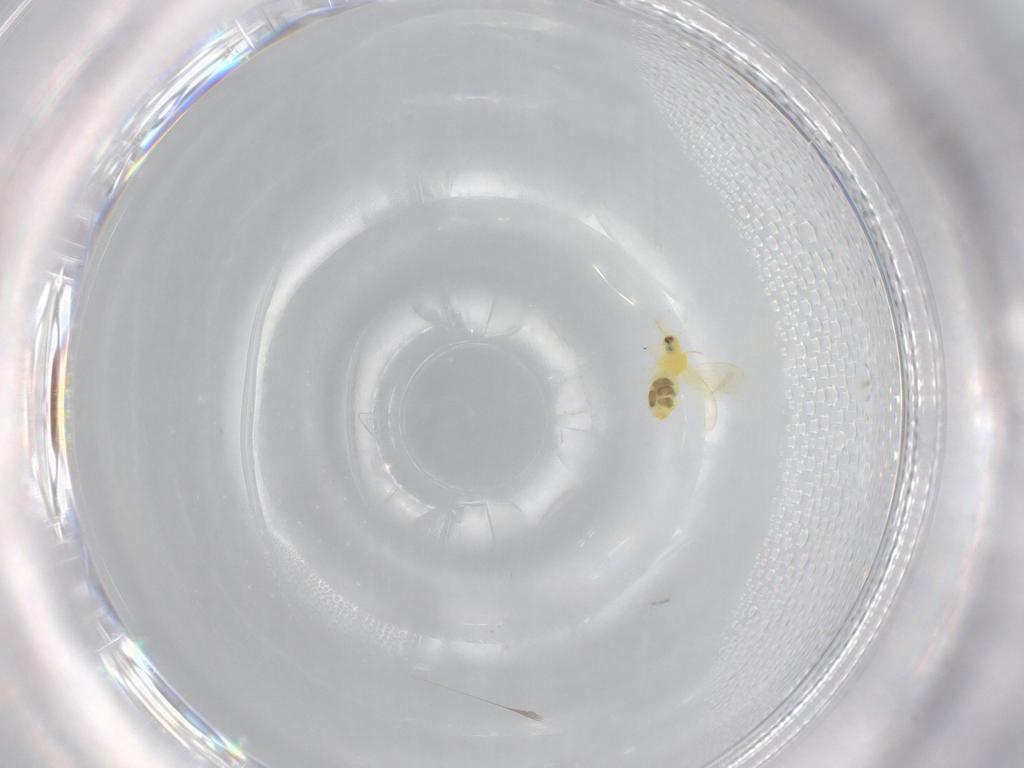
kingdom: Animalia
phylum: Arthropoda
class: Insecta
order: Hemiptera
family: Aleyrodidae
